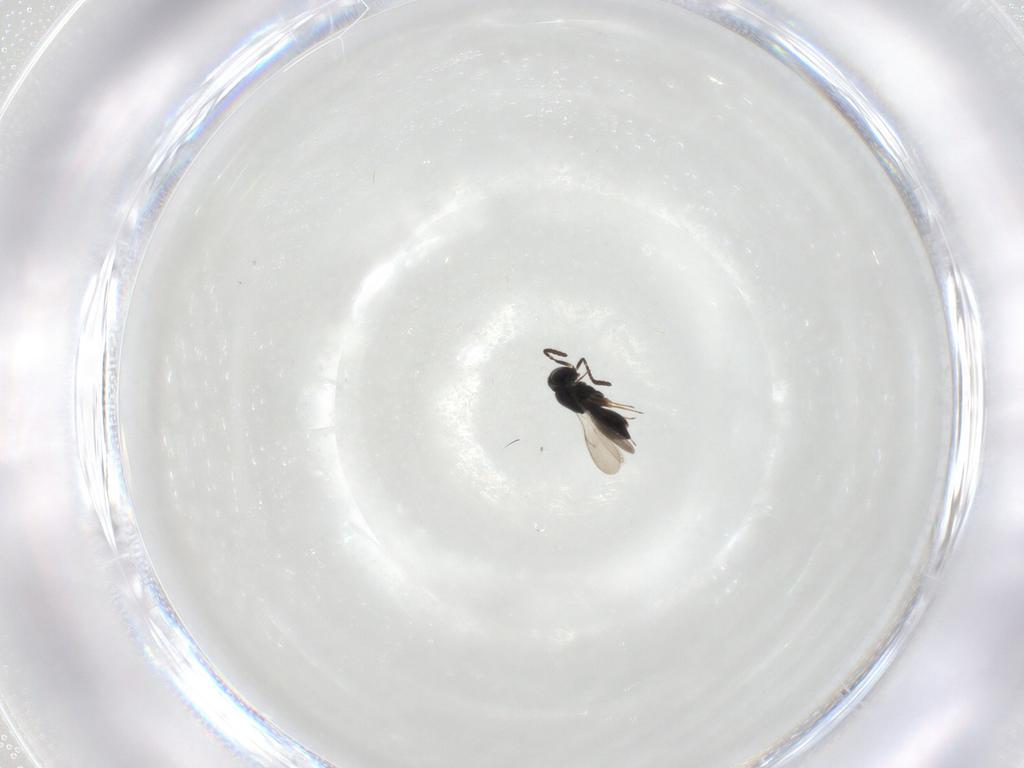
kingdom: Animalia
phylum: Arthropoda
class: Insecta
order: Hymenoptera
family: Scelionidae
